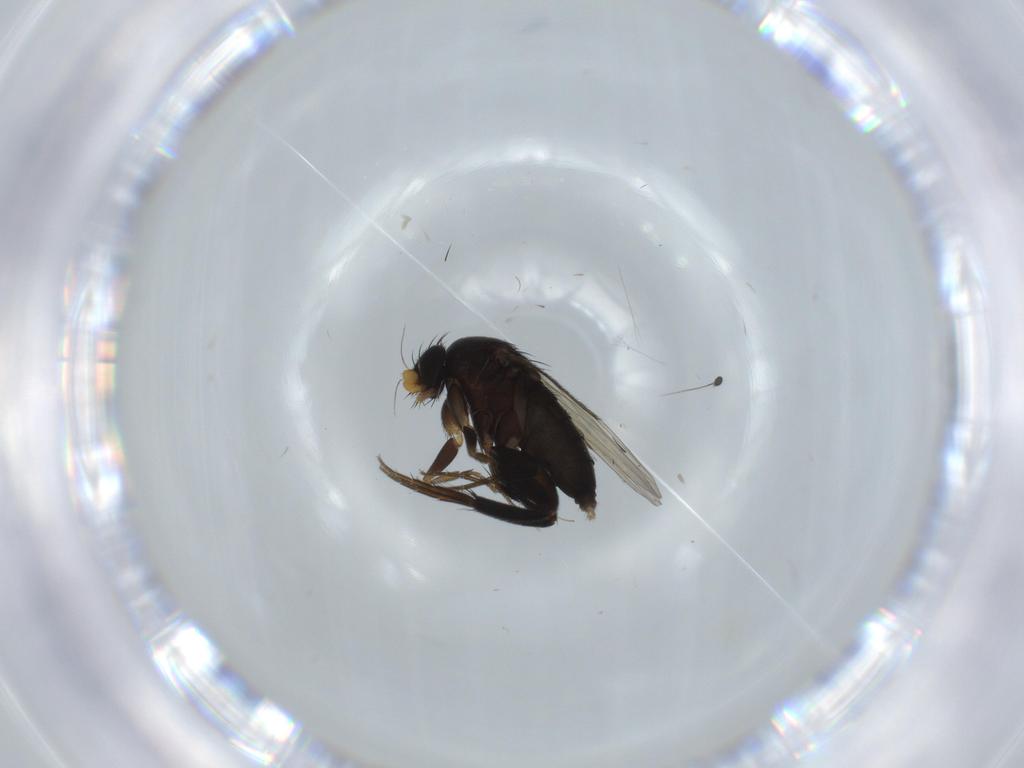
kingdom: Animalia
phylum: Arthropoda
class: Insecta
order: Diptera
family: Phoridae
